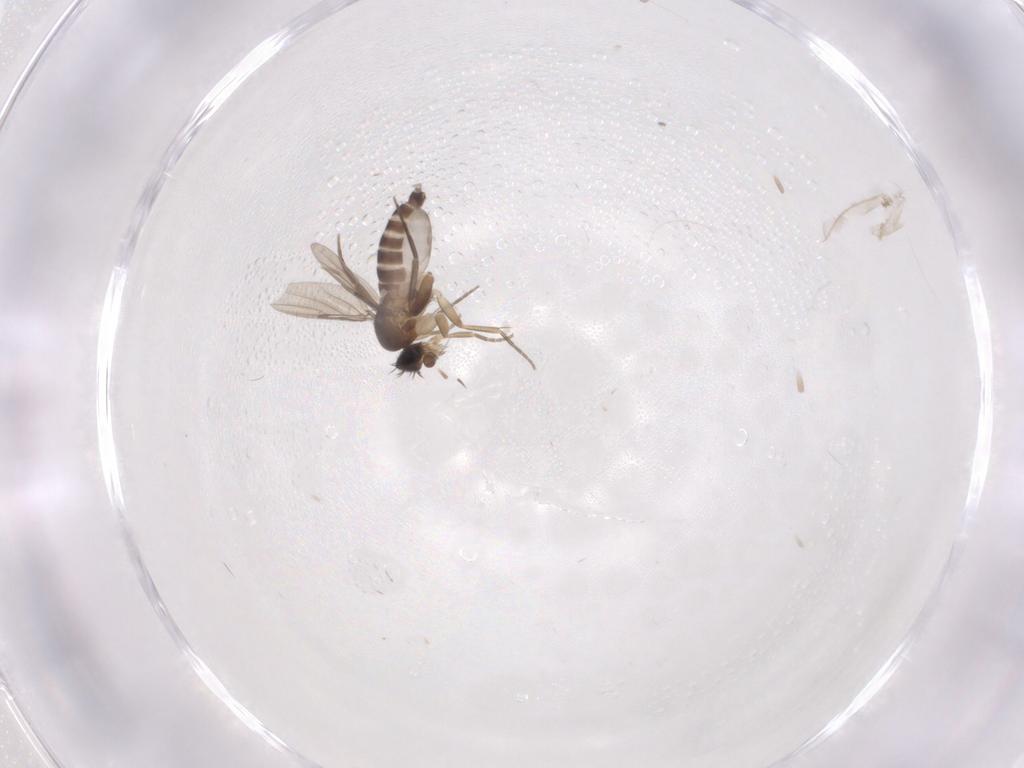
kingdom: Animalia
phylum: Arthropoda
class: Insecta
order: Diptera
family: Phoridae
